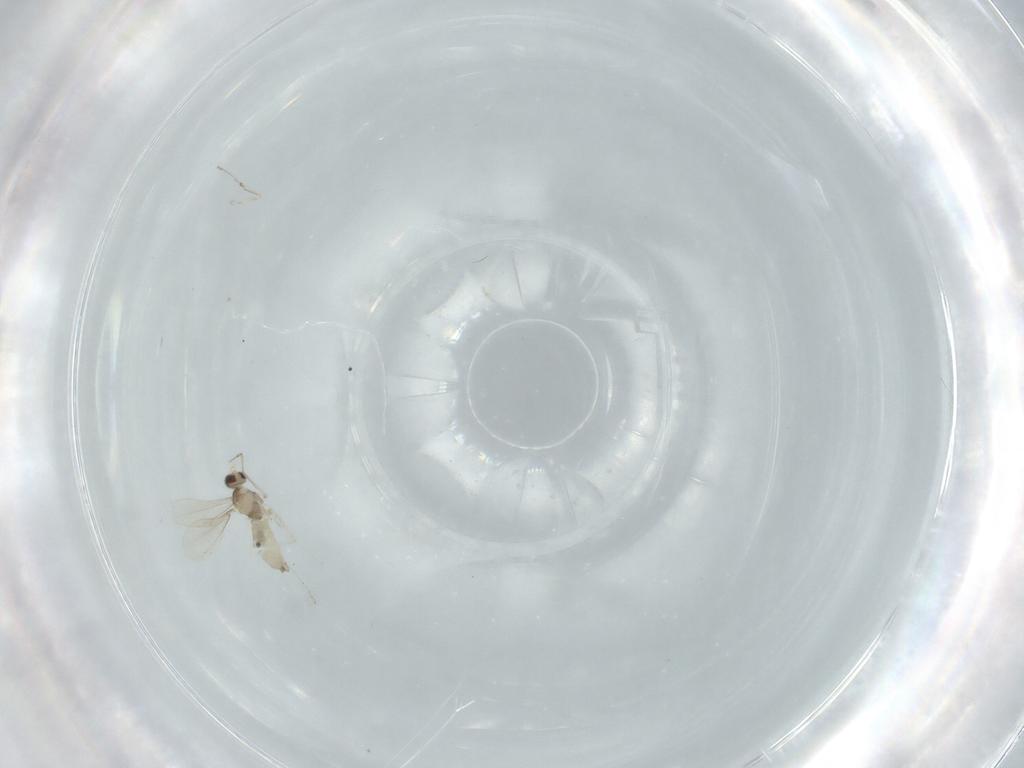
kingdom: Animalia
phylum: Arthropoda
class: Insecta
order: Diptera
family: Cecidomyiidae
